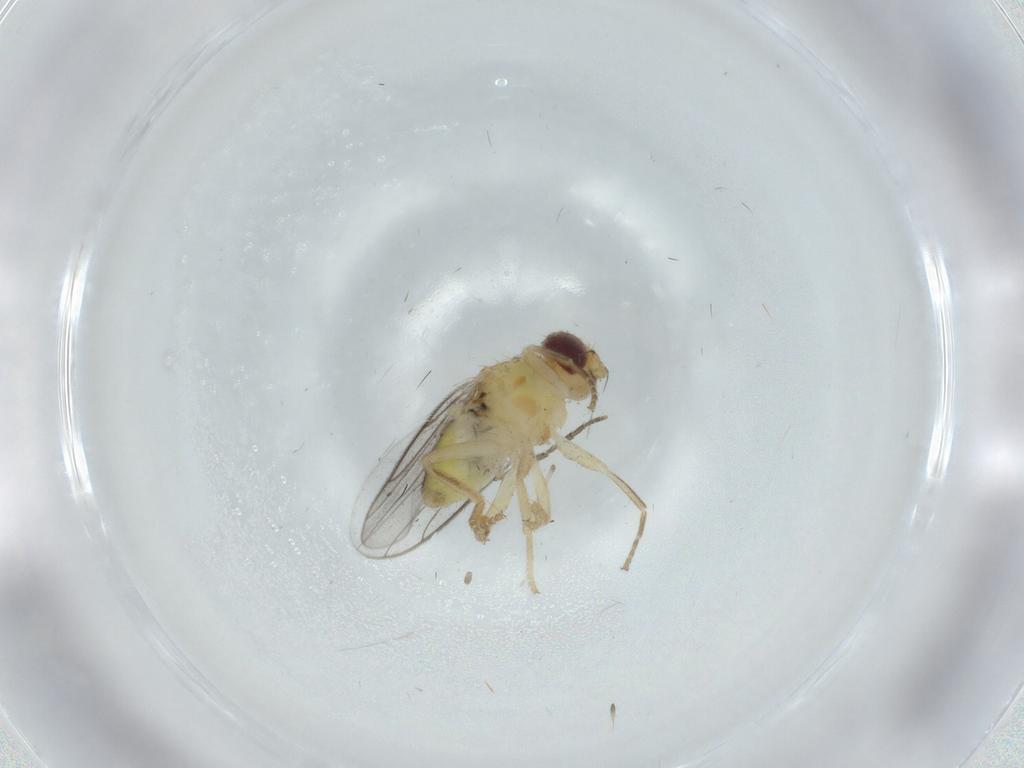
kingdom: Animalia
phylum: Arthropoda
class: Insecta
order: Diptera
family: Chloropidae
